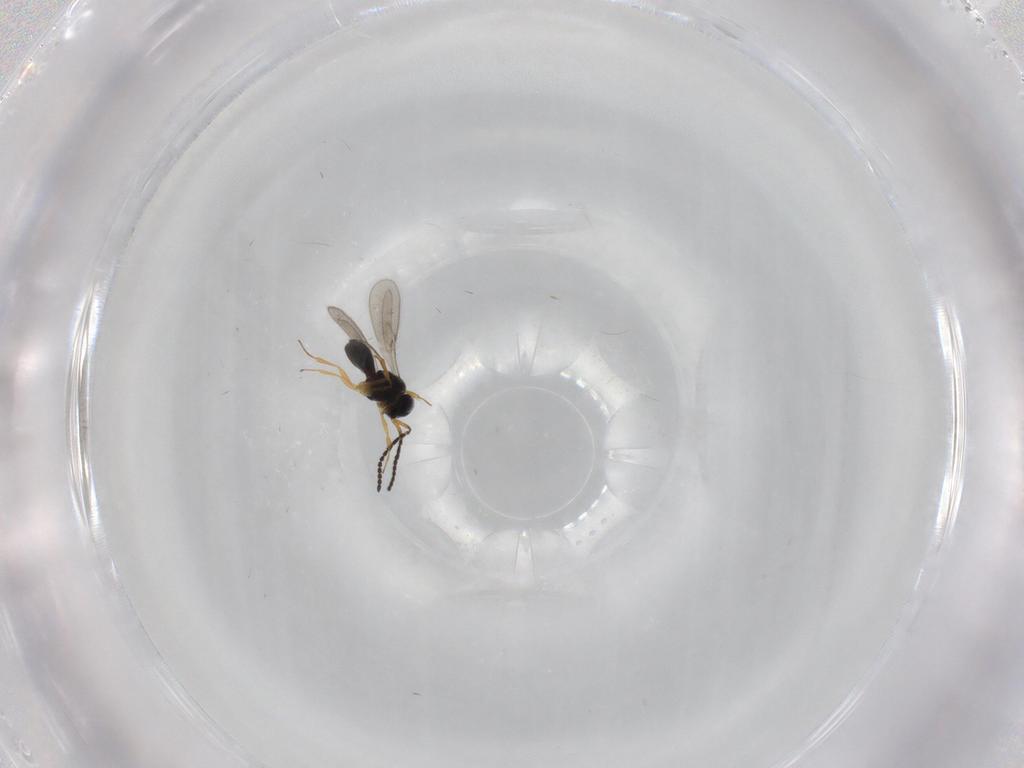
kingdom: Animalia
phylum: Arthropoda
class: Insecta
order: Hymenoptera
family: Scelionidae
